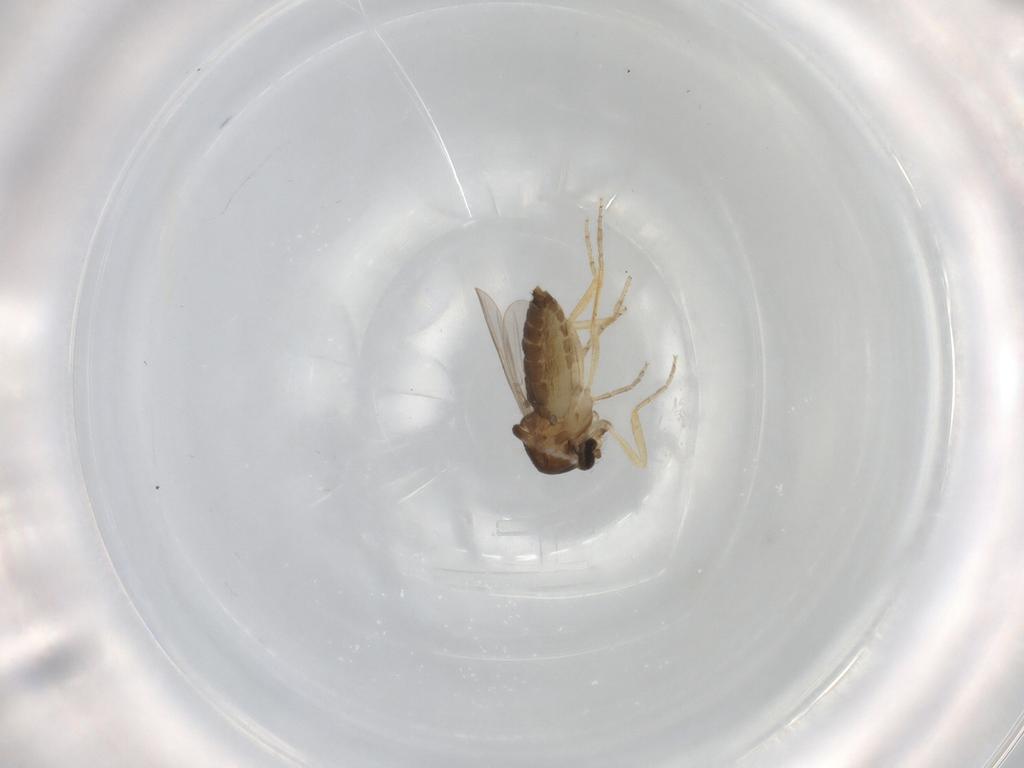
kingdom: Animalia
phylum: Arthropoda
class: Insecta
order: Diptera
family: Ceratopogonidae
